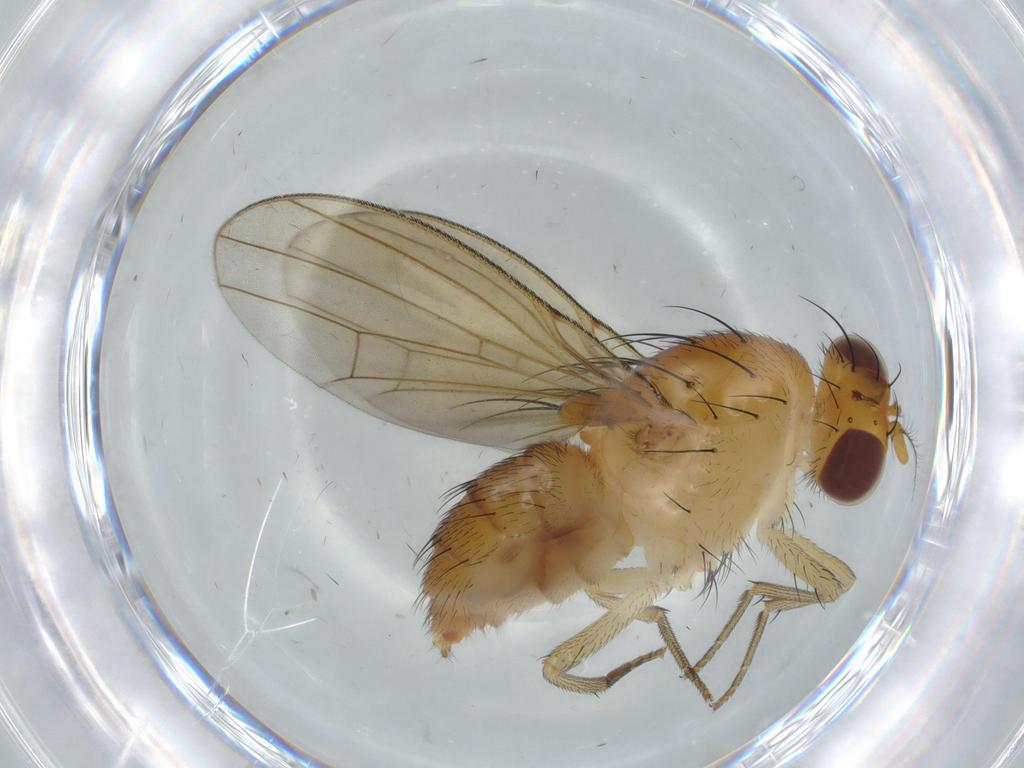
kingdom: Animalia
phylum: Arthropoda
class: Insecta
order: Diptera
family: Lauxaniidae
